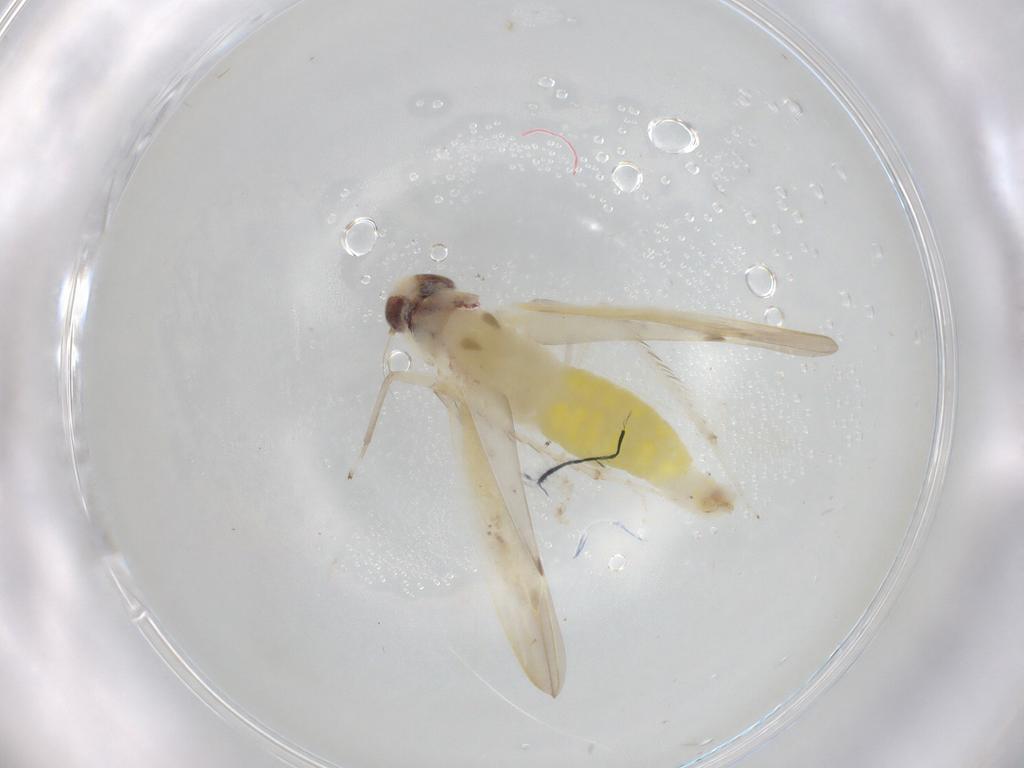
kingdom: Animalia
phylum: Arthropoda
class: Insecta
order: Hemiptera
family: Cicadellidae
